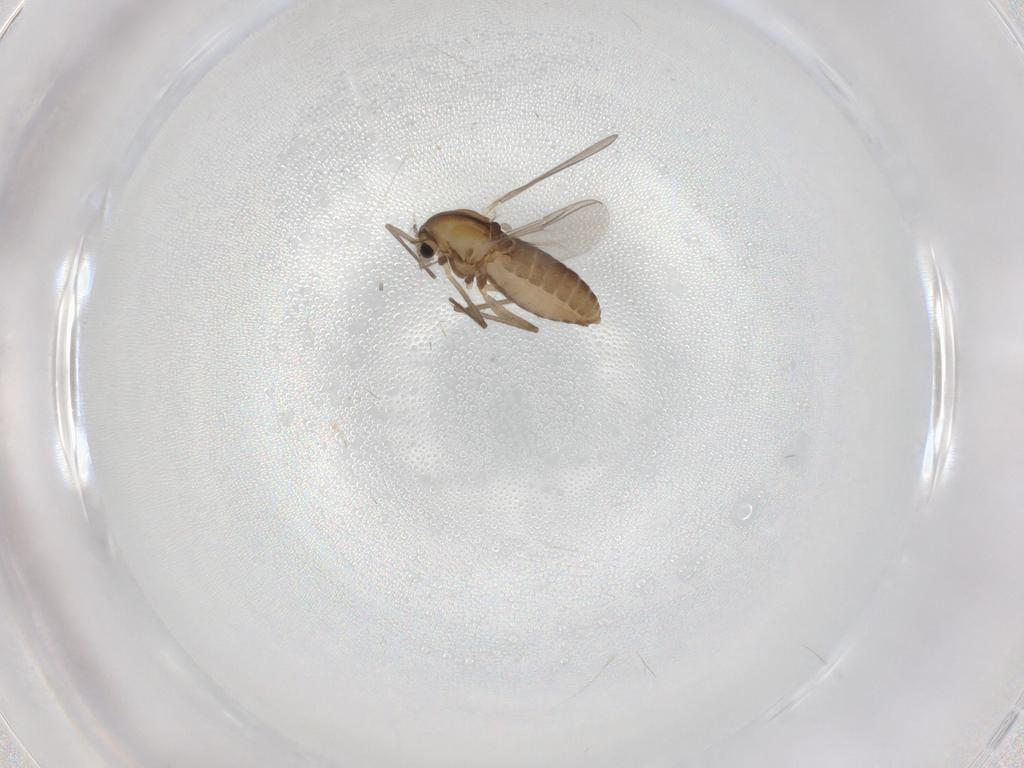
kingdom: Animalia
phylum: Arthropoda
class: Insecta
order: Diptera
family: Chironomidae
